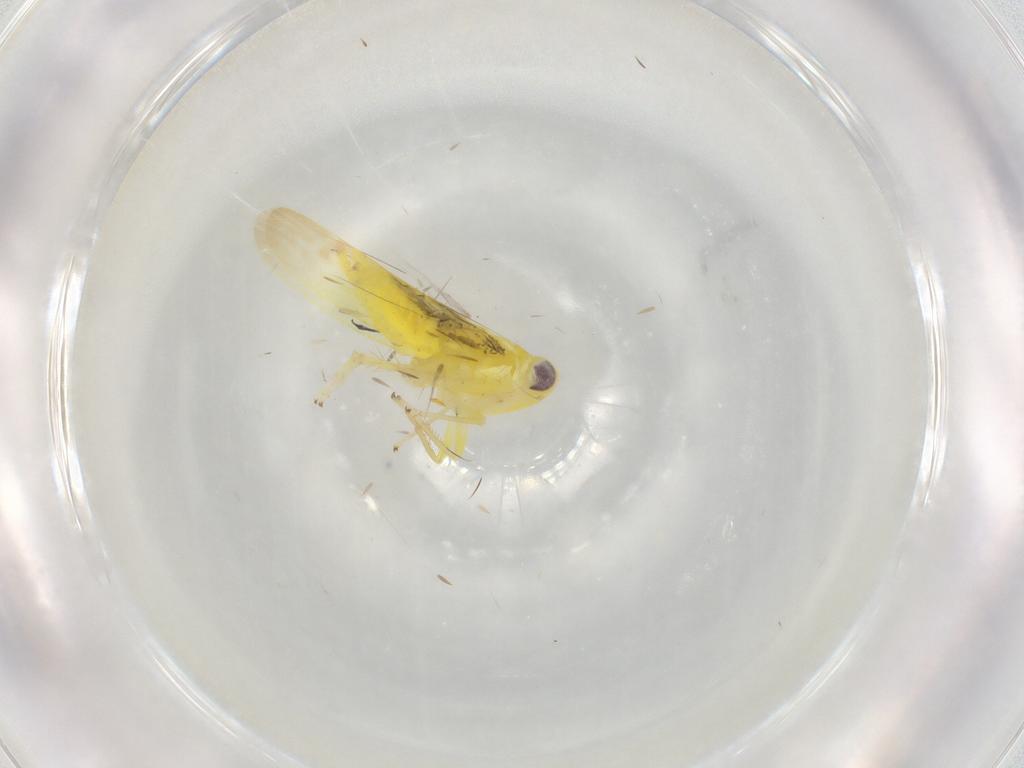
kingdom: Animalia
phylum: Arthropoda
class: Insecta
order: Hemiptera
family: Cicadellidae
